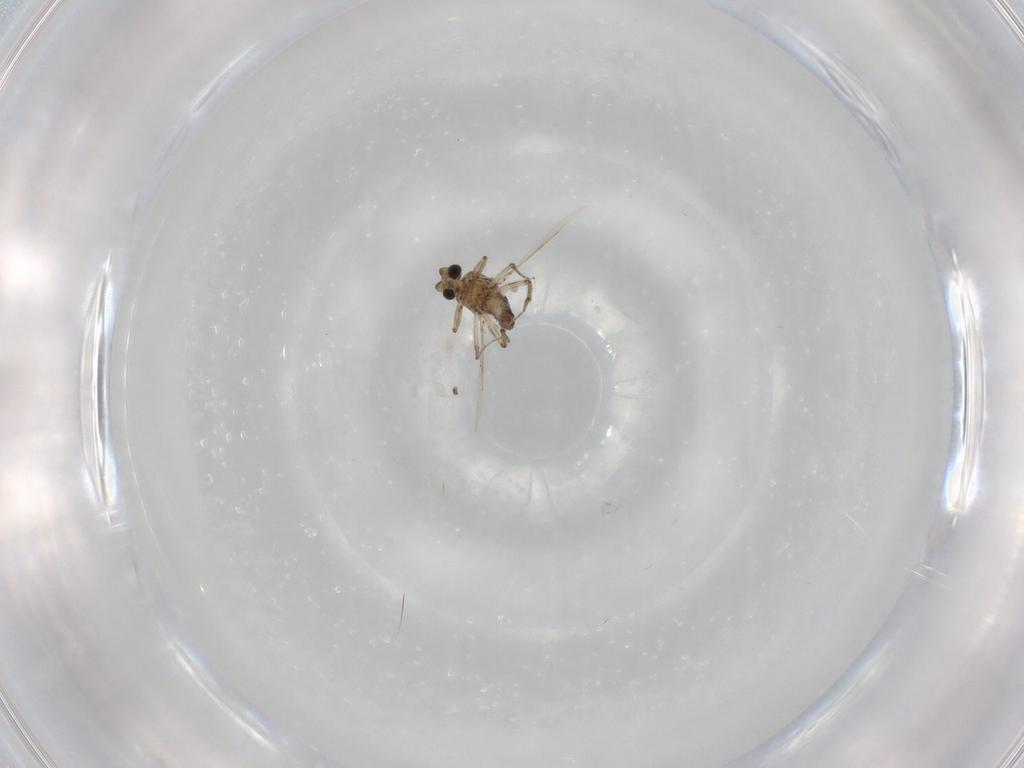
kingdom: Animalia
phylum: Arthropoda
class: Insecta
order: Diptera
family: Ceratopogonidae
